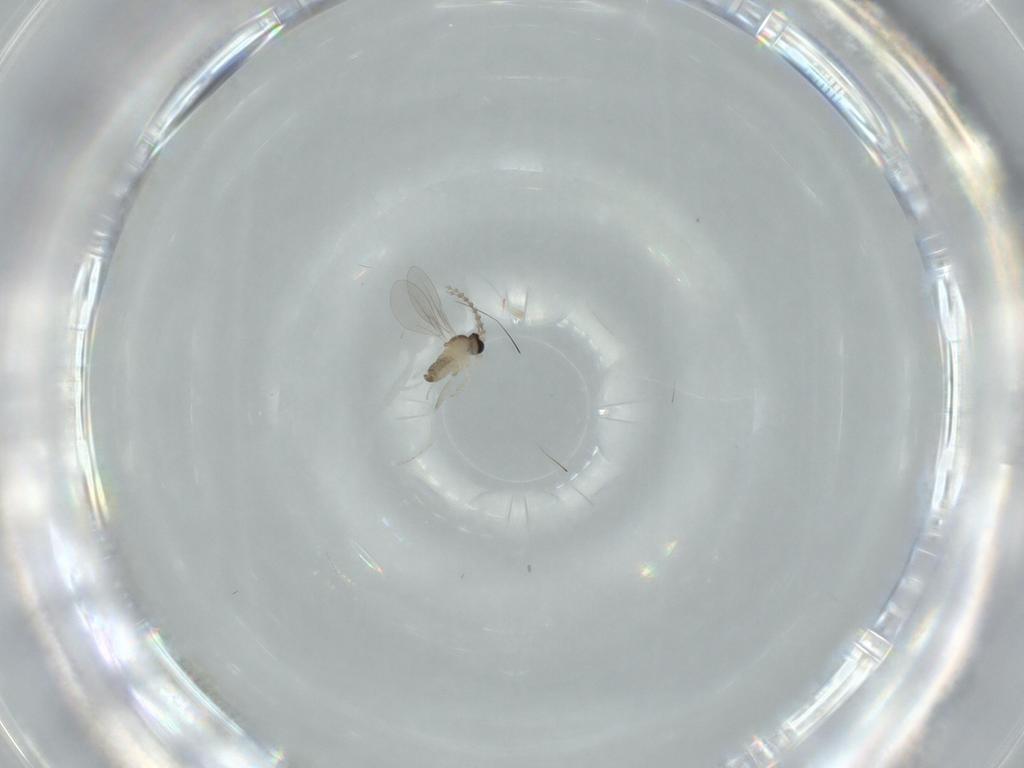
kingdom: Animalia
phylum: Arthropoda
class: Insecta
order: Diptera
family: Cecidomyiidae
